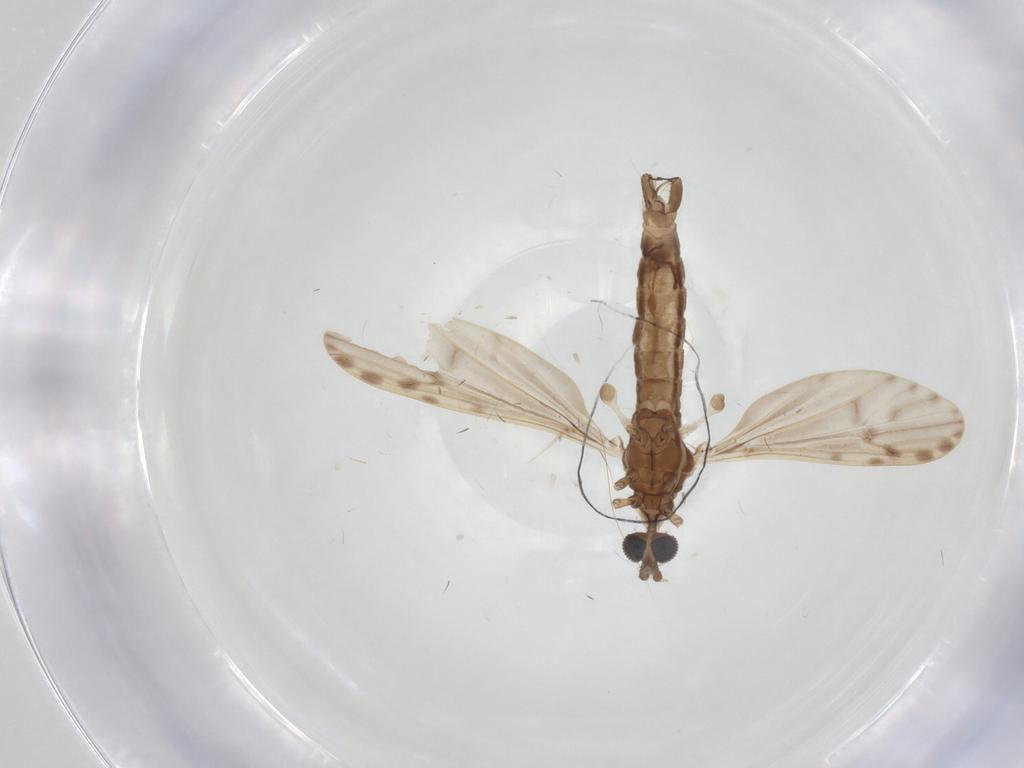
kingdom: Animalia
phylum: Arthropoda
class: Insecta
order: Diptera
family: Limoniidae
